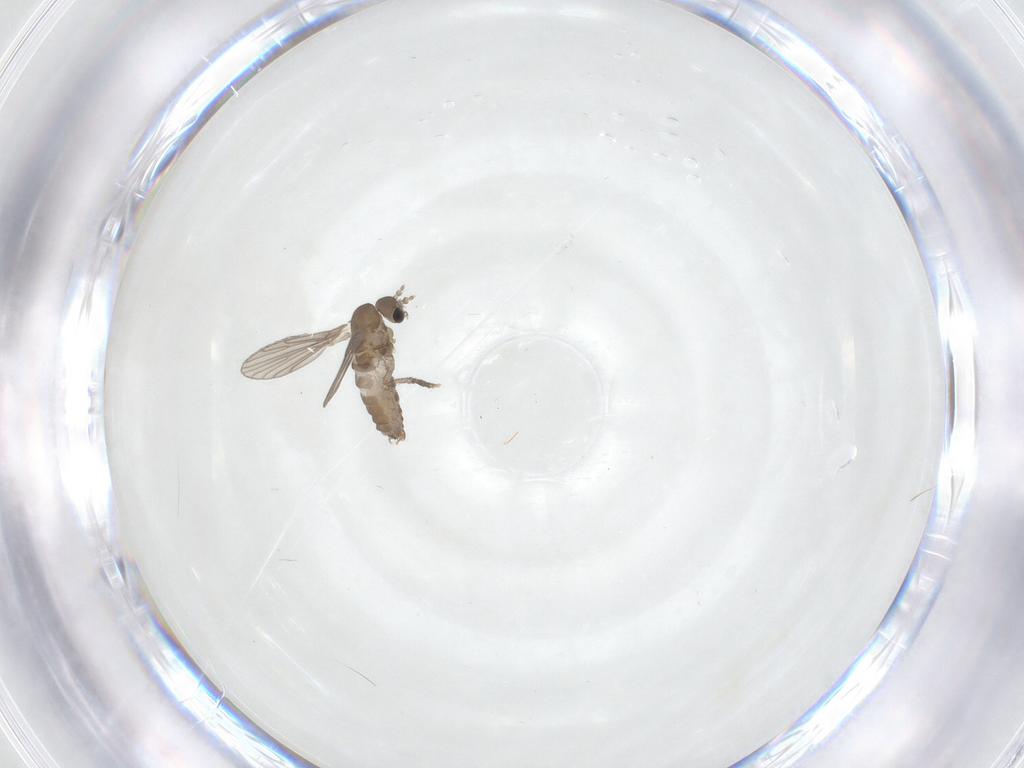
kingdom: Animalia
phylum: Arthropoda
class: Insecta
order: Diptera
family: Psychodidae
